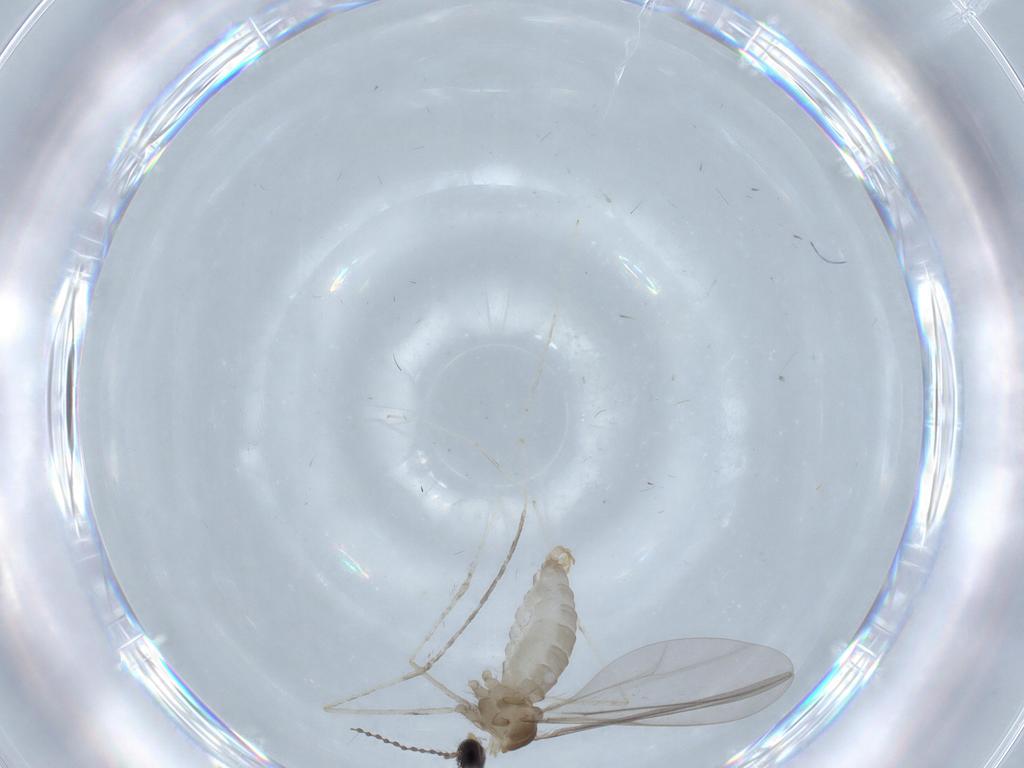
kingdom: Animalia
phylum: Arthropoda
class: Insecta
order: Diptera
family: Cecidomyiidae
